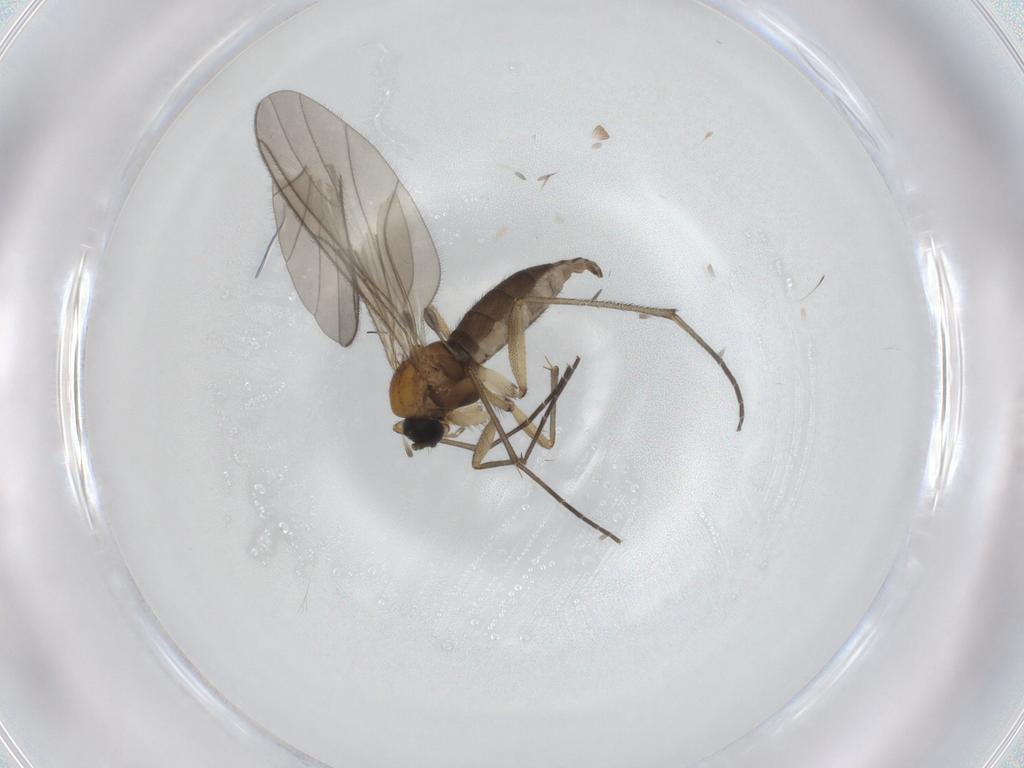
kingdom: Animalia
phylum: Arthropoda
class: Insecta
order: Diptera
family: Sciaridae
